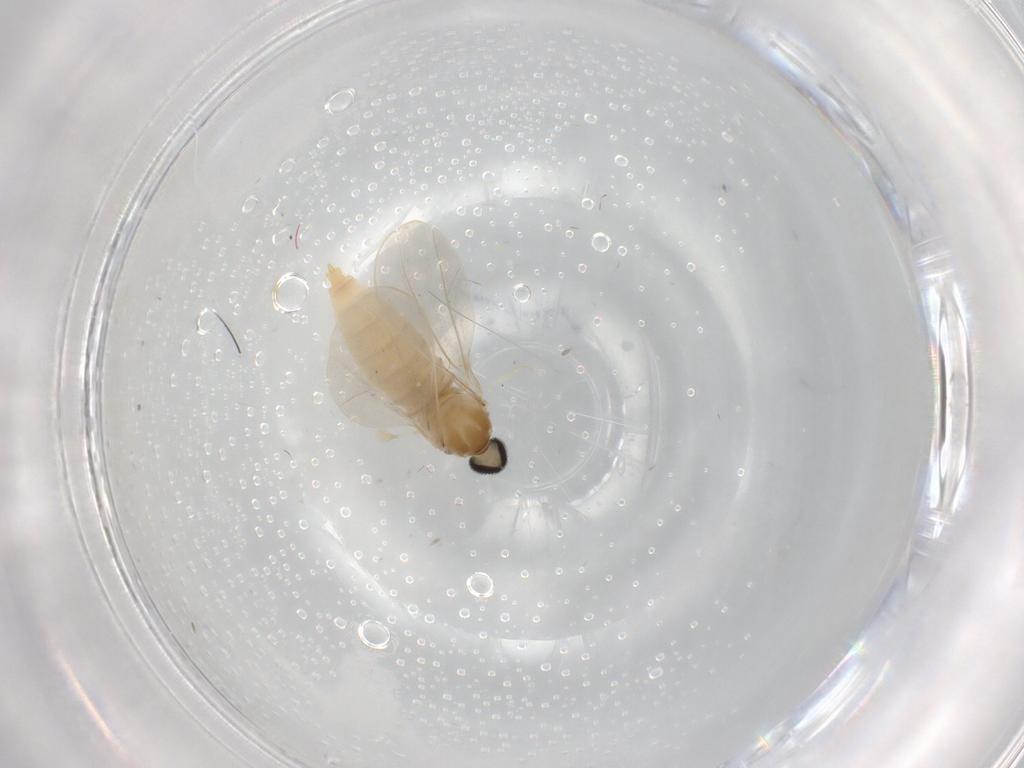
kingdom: Animalia
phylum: Arthropoda
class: Insecta
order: Diptera
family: Cecidomyiidae
